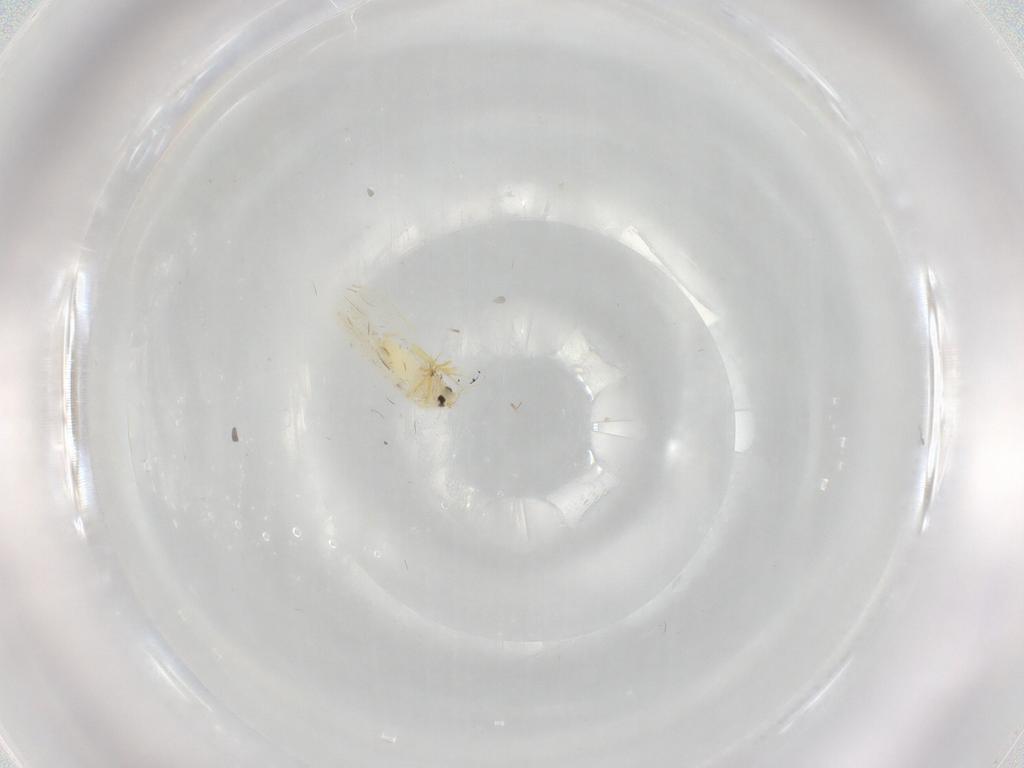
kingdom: Animalia
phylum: Arthropoda
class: Insecta
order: Hemiptera
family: Aleyrodidae
